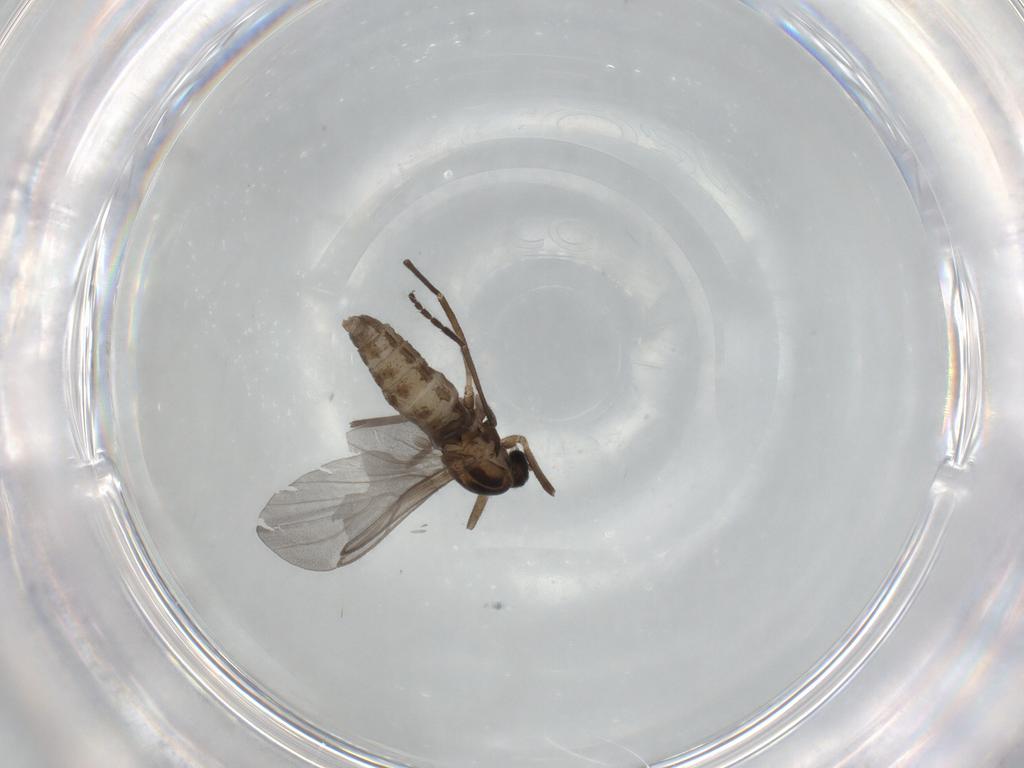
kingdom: Animalia
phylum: Arthropoda
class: Insecta
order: Diptera
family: Cecidomyiidae
